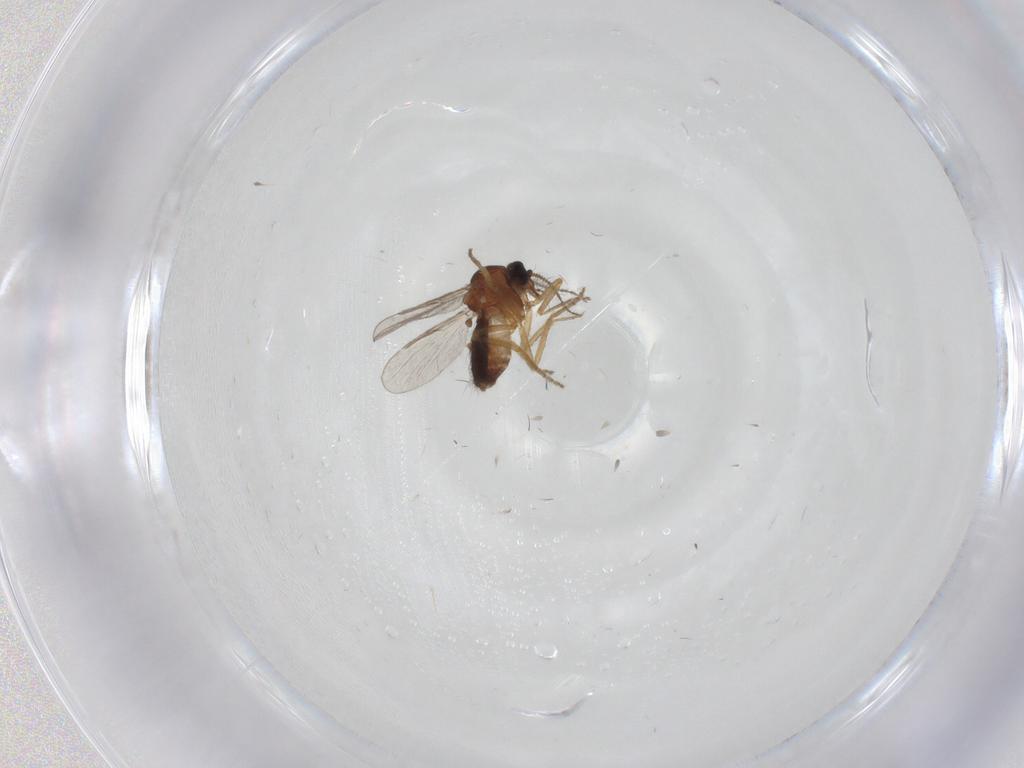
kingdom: Animalia
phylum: Arthropoda
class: Insecta
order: Diptera
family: Ceratopogonidae
